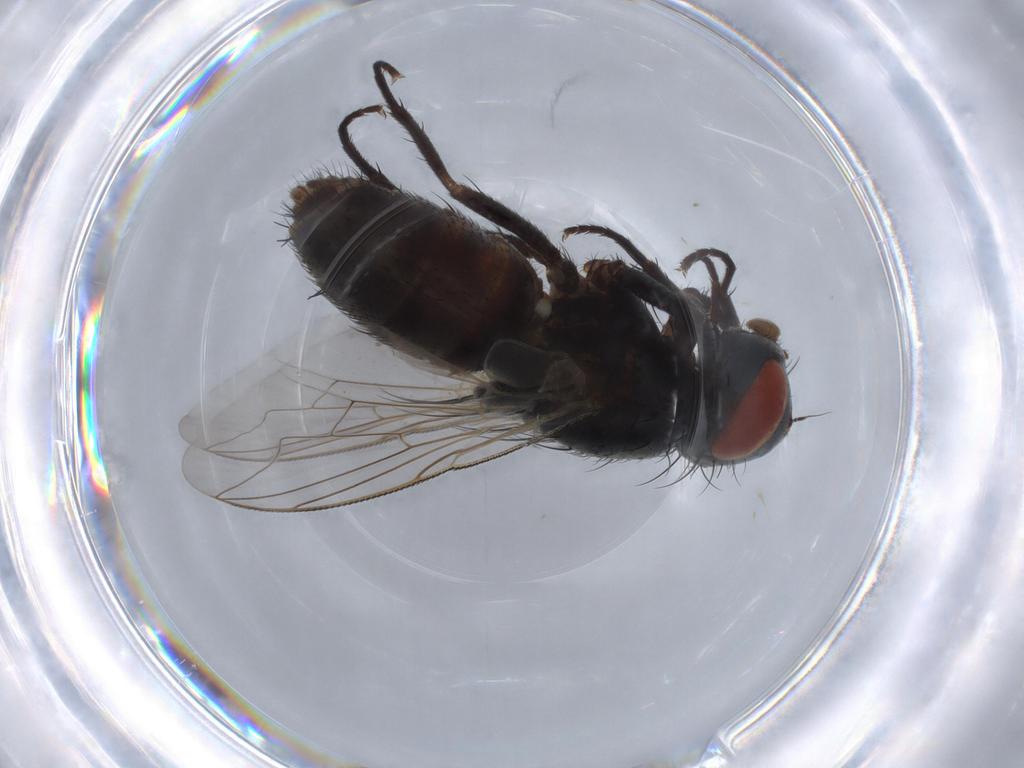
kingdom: Animalia
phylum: Arthropoda
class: Insecta
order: Diptera
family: Sarcophagidae
